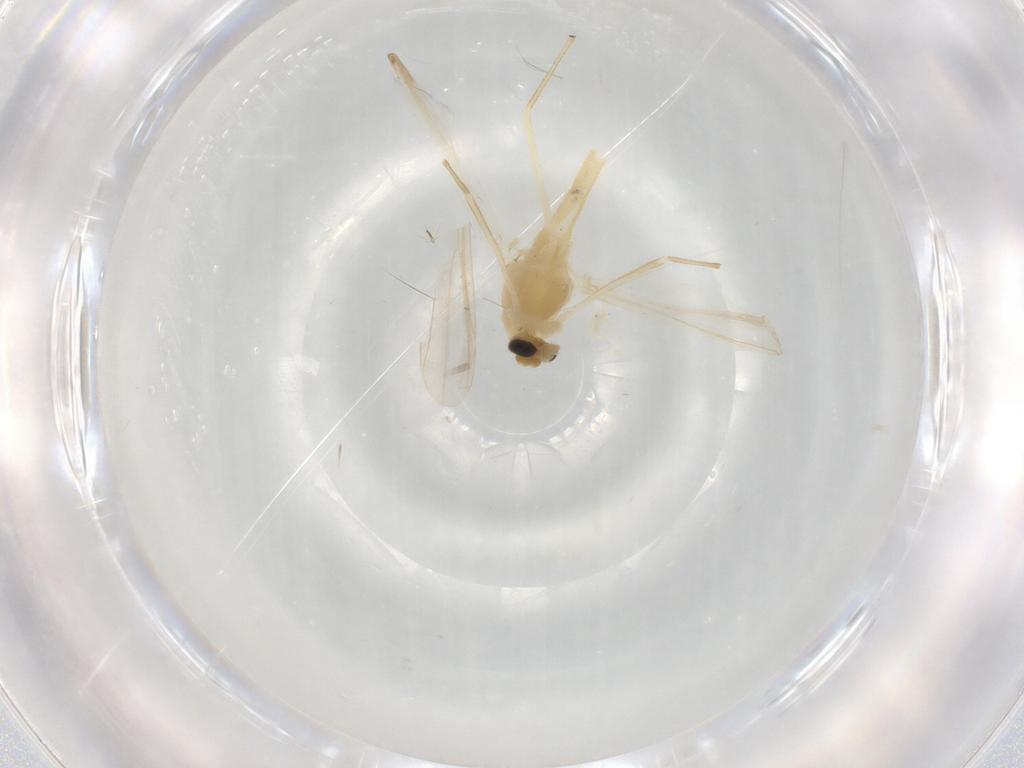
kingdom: Animalia
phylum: Arthropoda
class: Insecta
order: Diptera
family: Chironomidae
